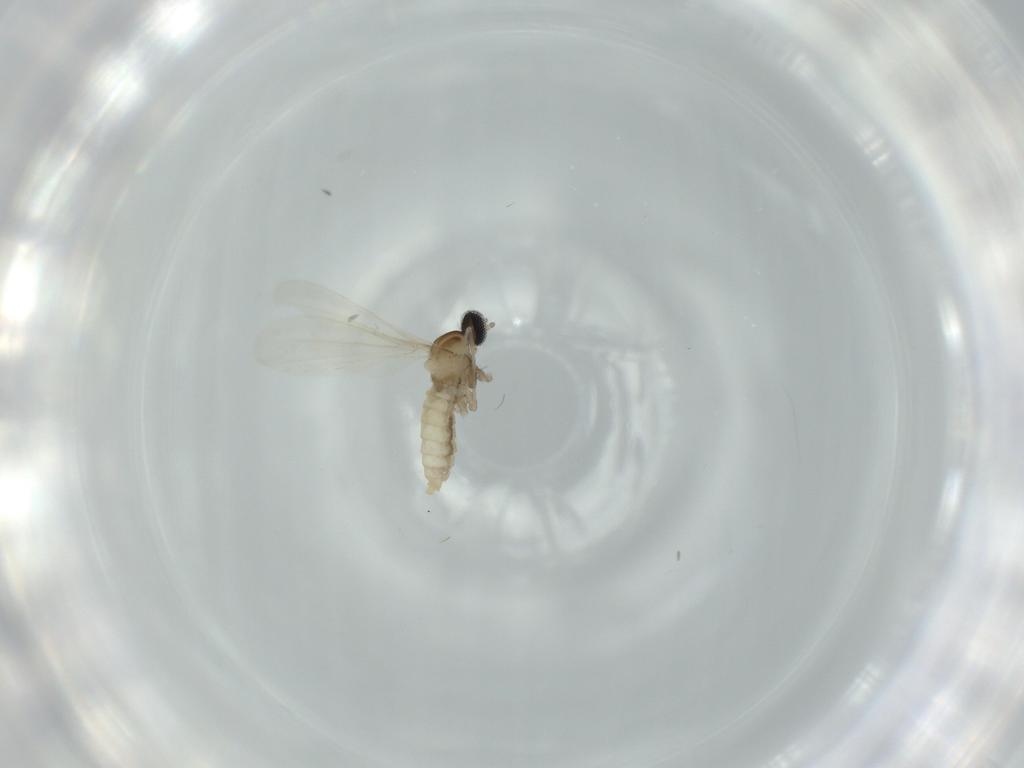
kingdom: Animalia
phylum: Arthropoda
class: Insecta
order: Diptera
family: Cecidomyiidae
